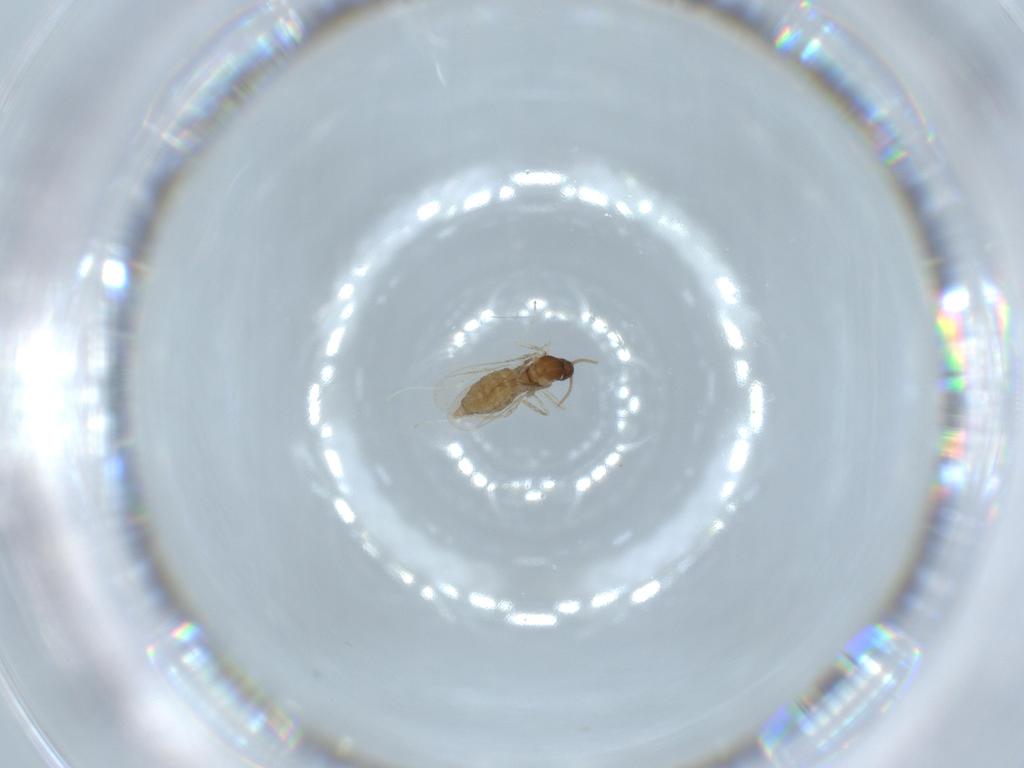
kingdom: Animalia
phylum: Arthropoda
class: Insecta
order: Diptera
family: Cecidomyiidae
